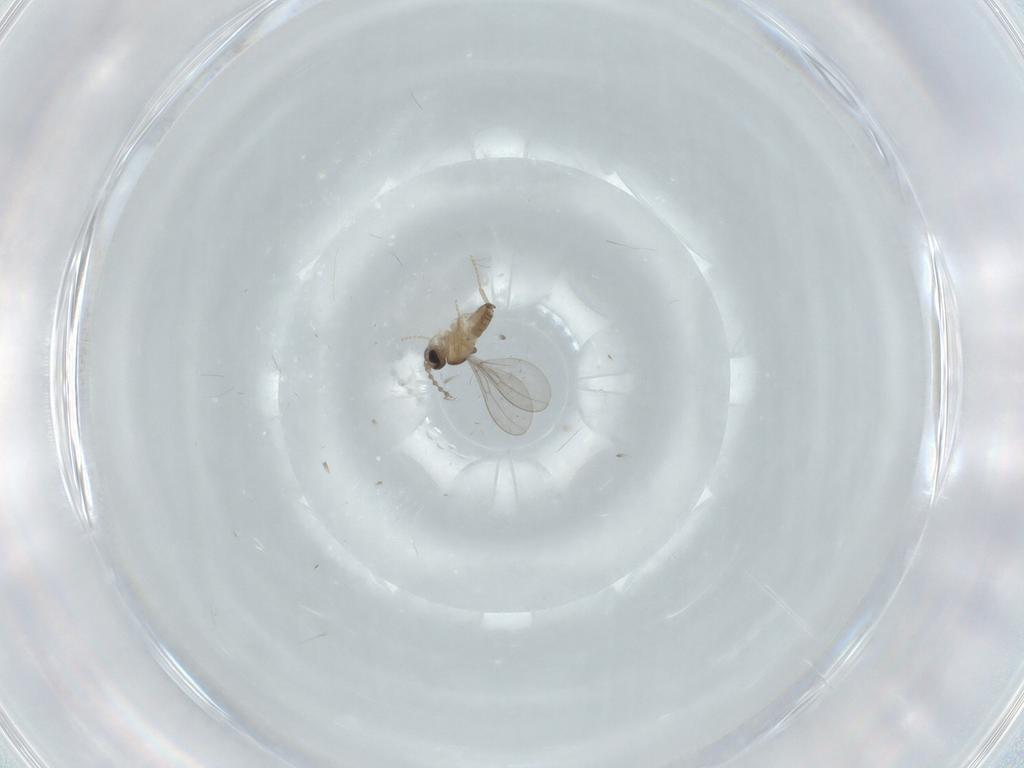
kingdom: Animalia
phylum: Arthropoda
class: Insecta
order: Diptera
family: Cecidomyiidae
